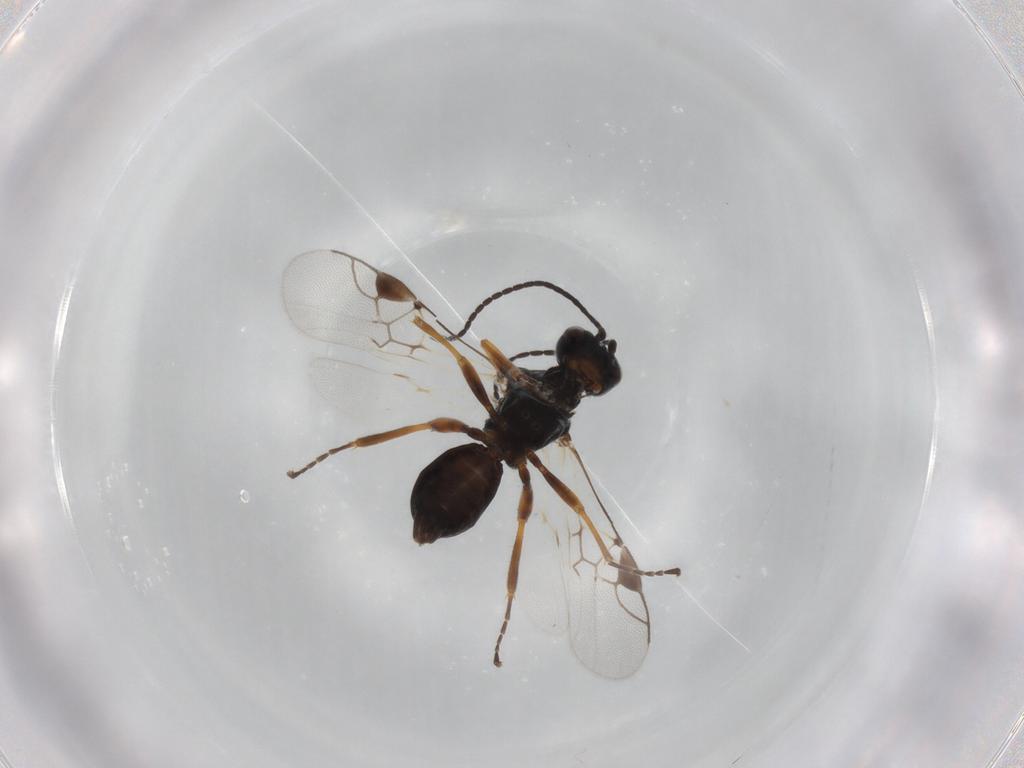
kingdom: Animalia
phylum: Arthropoda
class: Insecta
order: Hymenoptera
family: Braconidae
